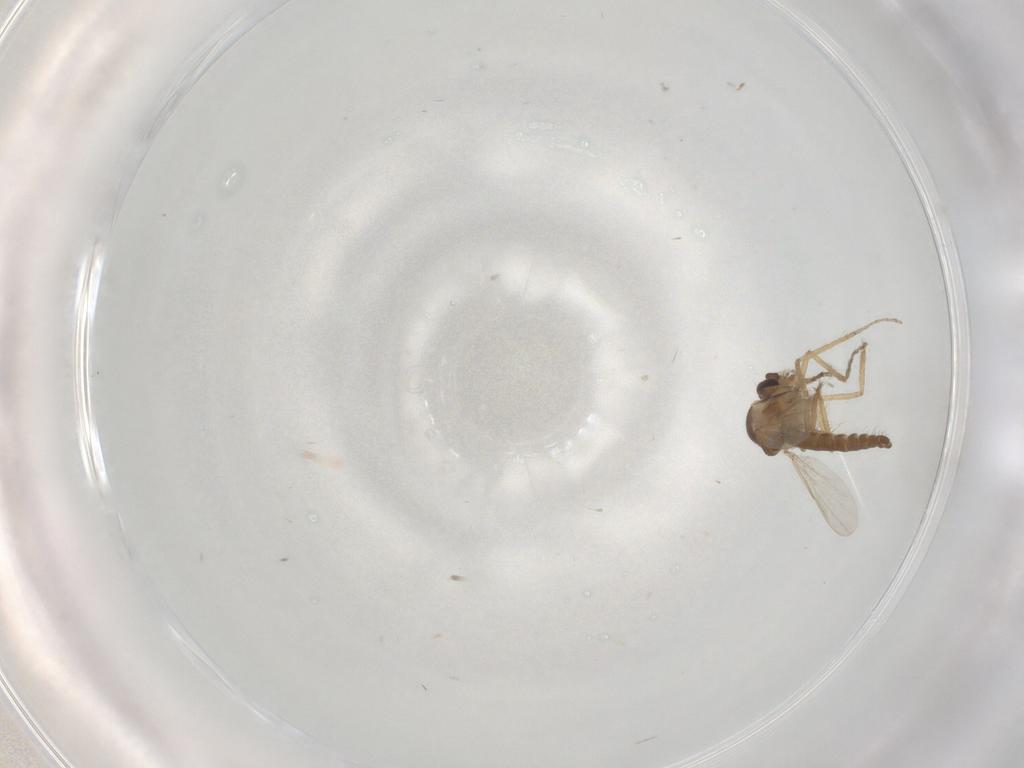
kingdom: Animalia
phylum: Arthropoda
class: Insecta
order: Diptera
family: Ceratopogonidae
